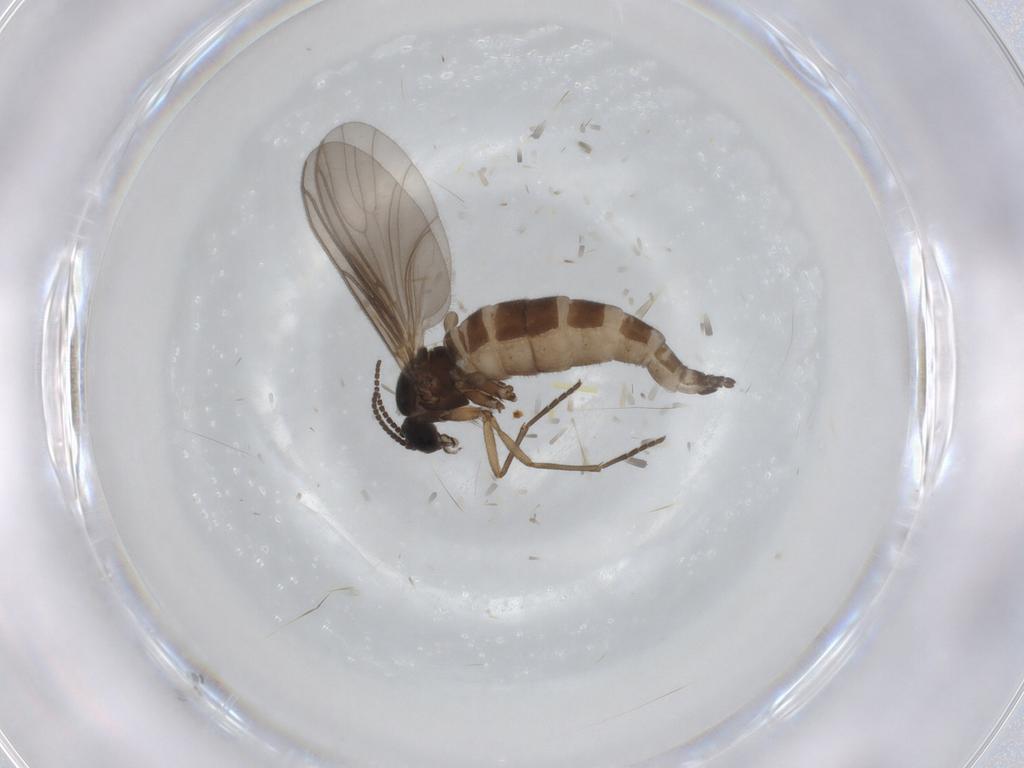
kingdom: Animalia
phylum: Arthropoda
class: Insecta
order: Diptera
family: Sciaridae
